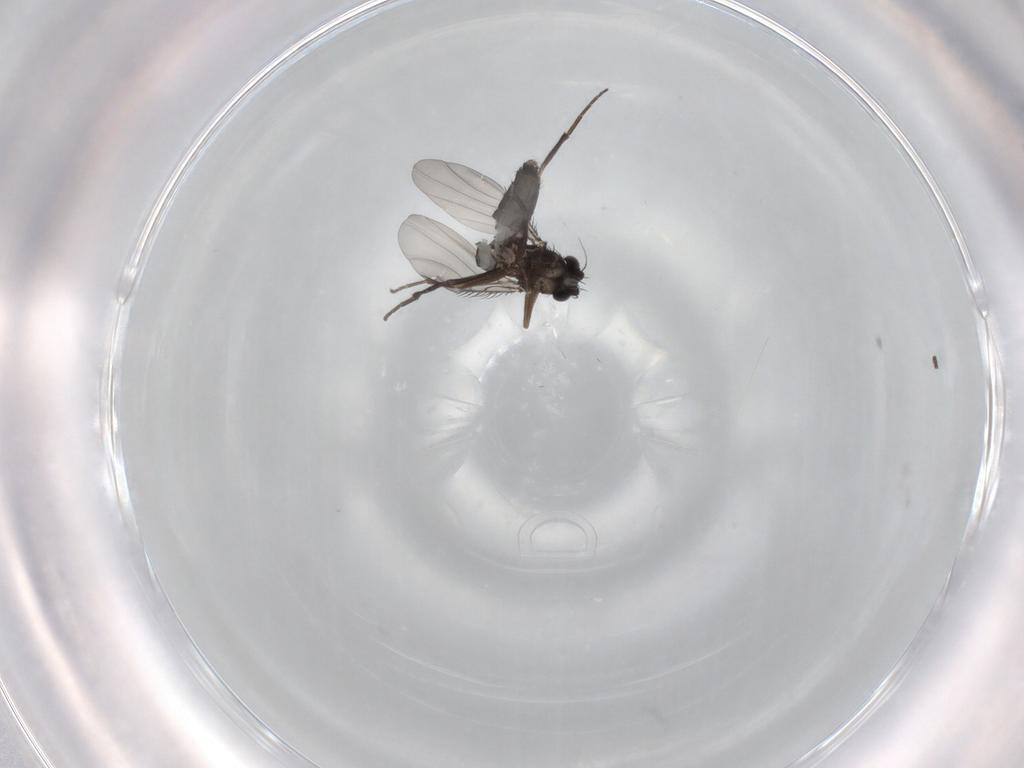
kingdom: Animalia
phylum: Arthropoda
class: Insecta
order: Diptera
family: Phoridae
